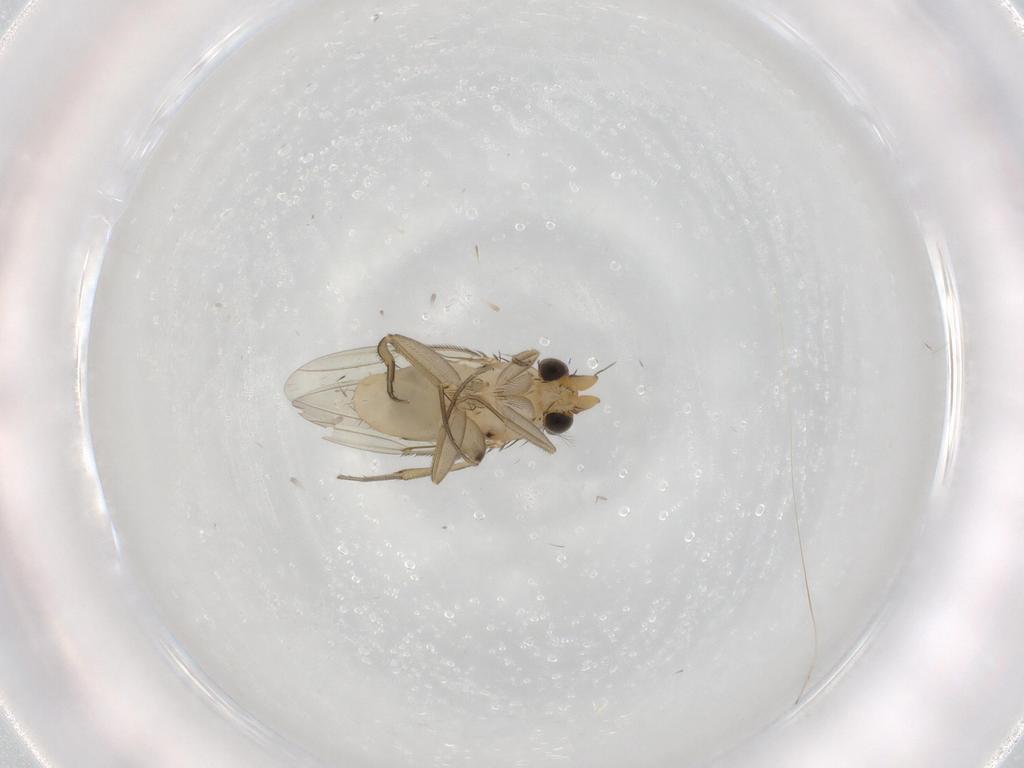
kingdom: Animalia
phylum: Arthropoda
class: Insecta
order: Diptera
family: Phoridae
